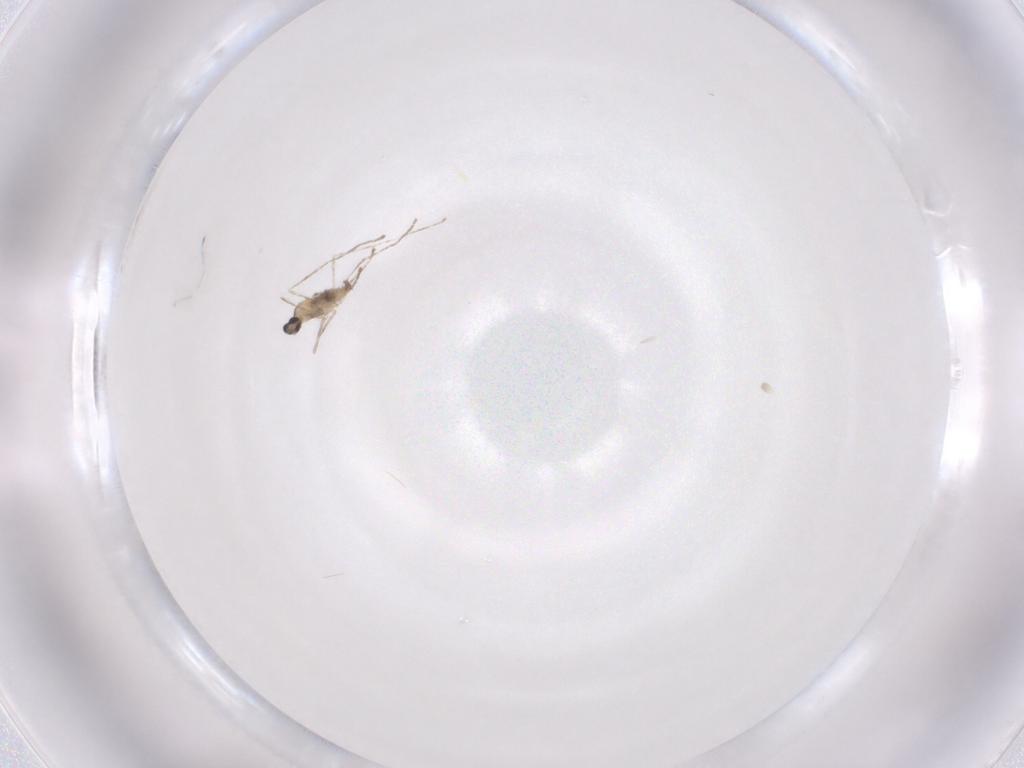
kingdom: Animalia
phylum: Arthropoda
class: Insecta
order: Diptera
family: Cecidomyiidae
